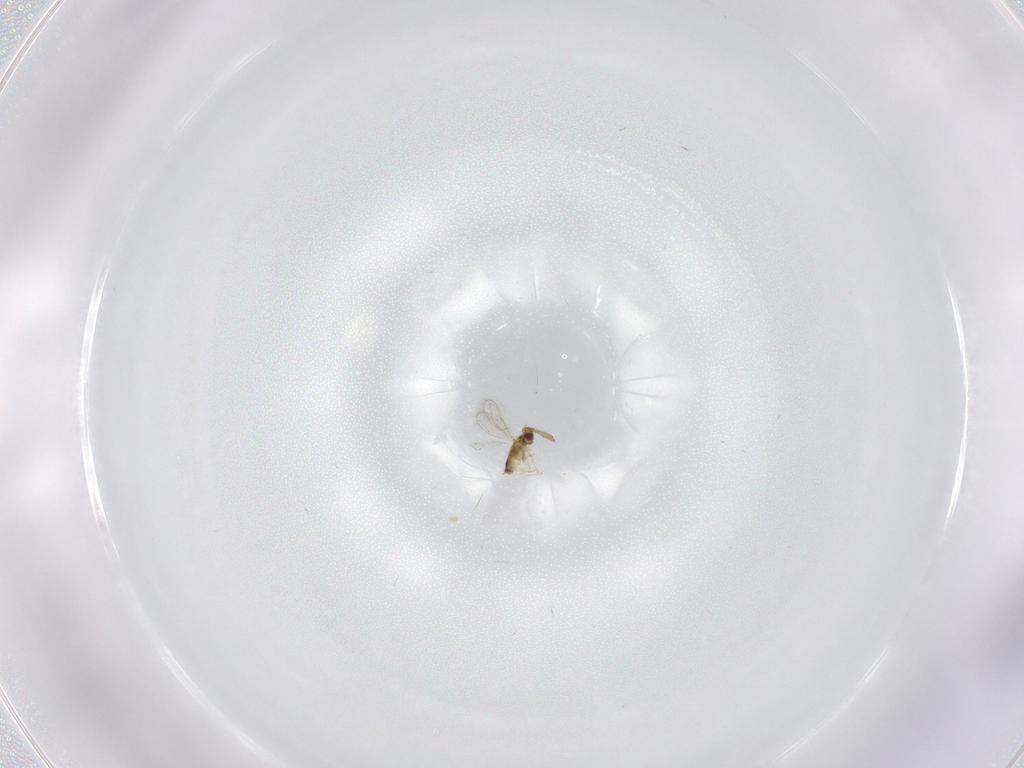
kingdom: Animalia
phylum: Arthropoda
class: Insecta
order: Hymenoptera
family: Aphelinidae
